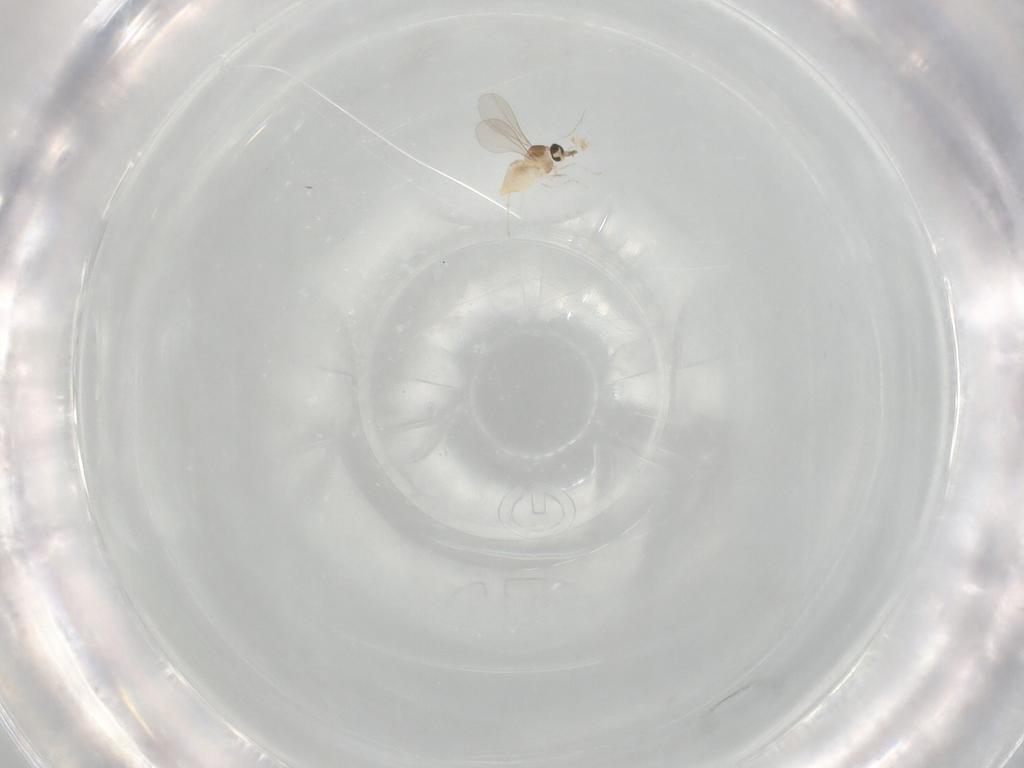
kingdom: Animalia
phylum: Arthropoda
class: Insecta
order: Diptera
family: Cecidomyiidae
